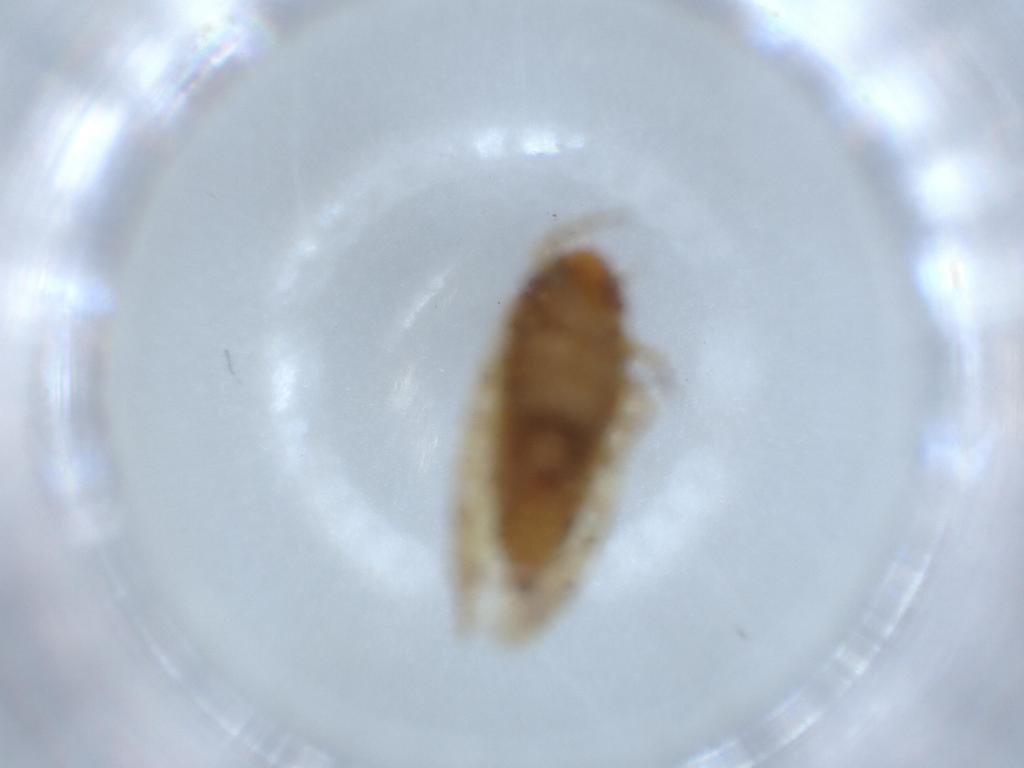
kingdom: Animalia
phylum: Arthropoda
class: Insecta
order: Hemiptera
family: Cicadellidae
